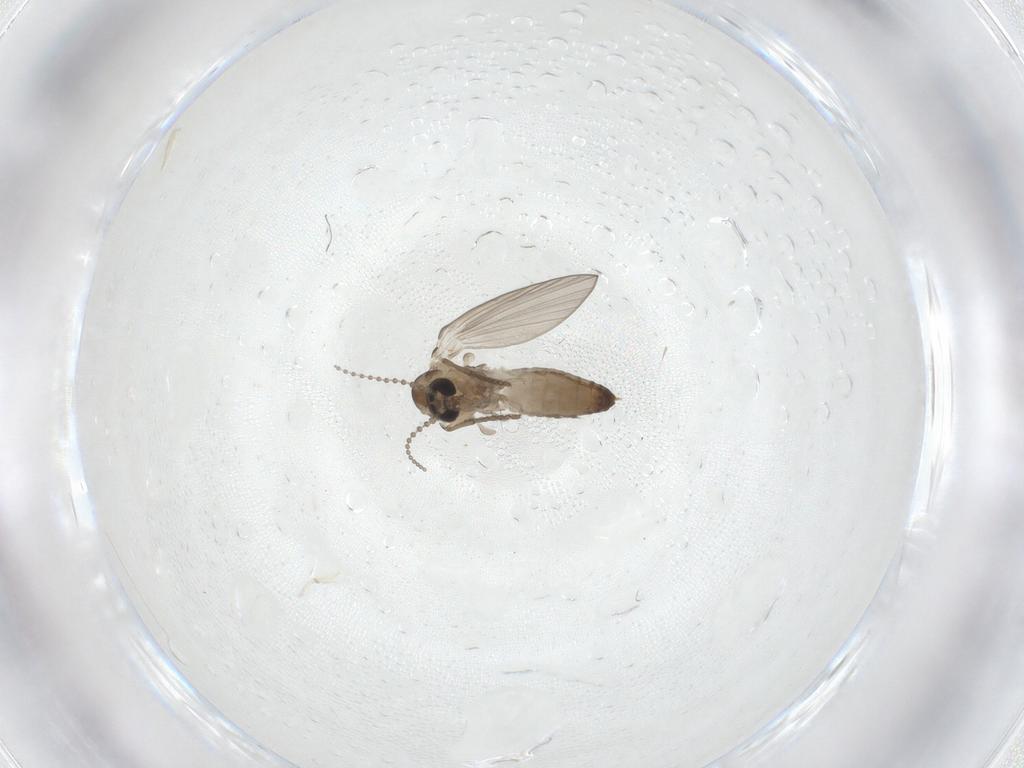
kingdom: Animalia
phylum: Arthropoda
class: Insecta
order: Diptera
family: Psychodidae
